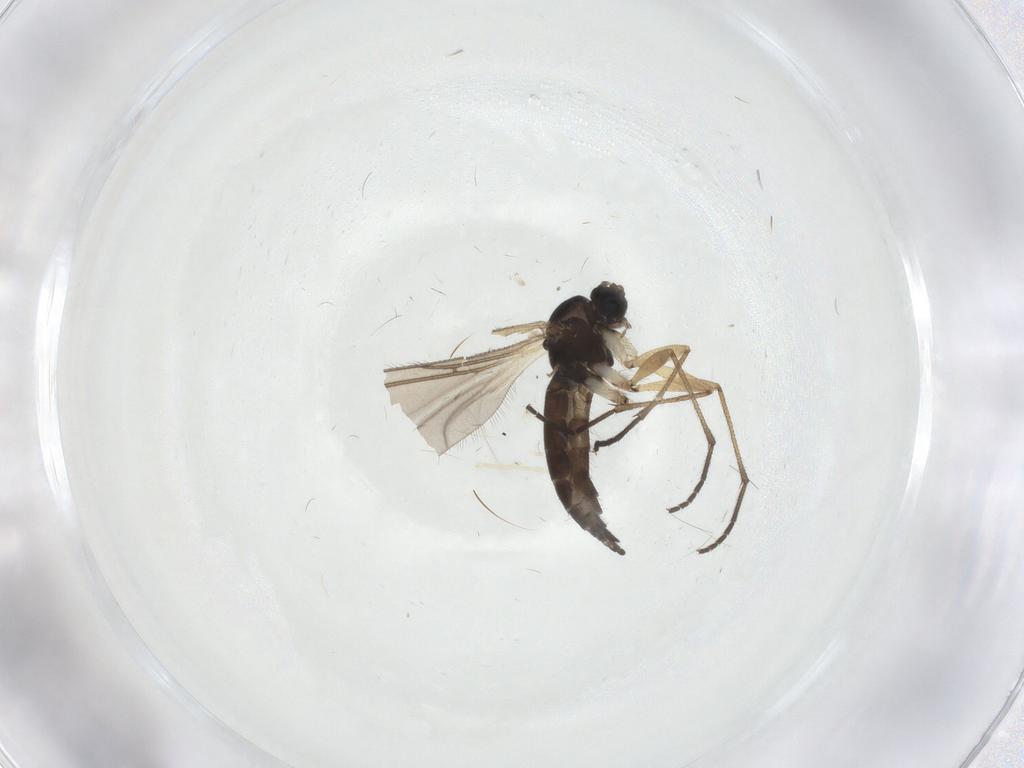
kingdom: Animalia
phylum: Arthropoda
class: Insecta
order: Diptera
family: Sciaridae
